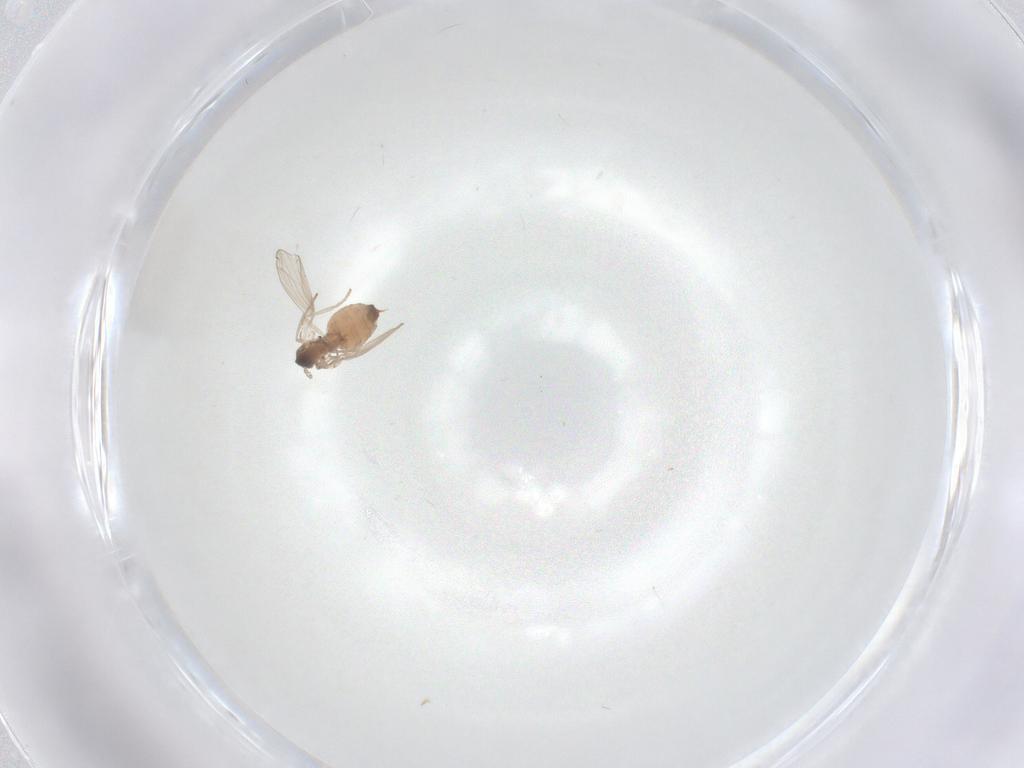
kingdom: Animalia
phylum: Arthropoda
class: Insecta
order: Diptera
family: Psychodidae
